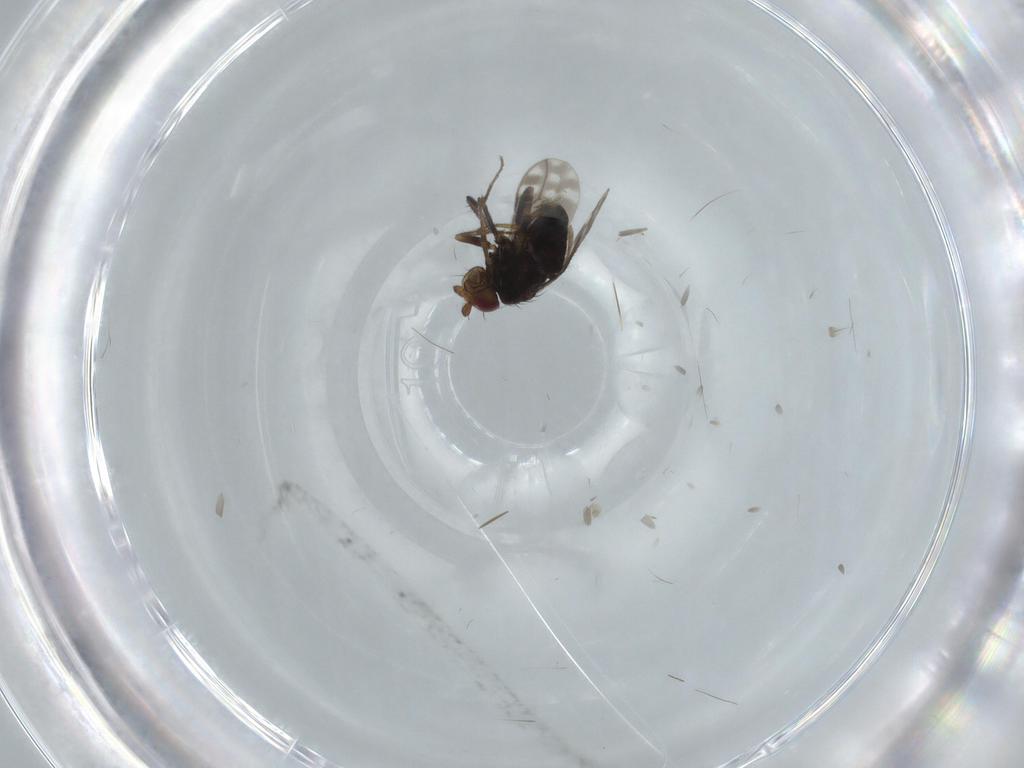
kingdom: Animalia
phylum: Arthropoda
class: Insecta
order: Diptera
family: Sphaeroceridae
